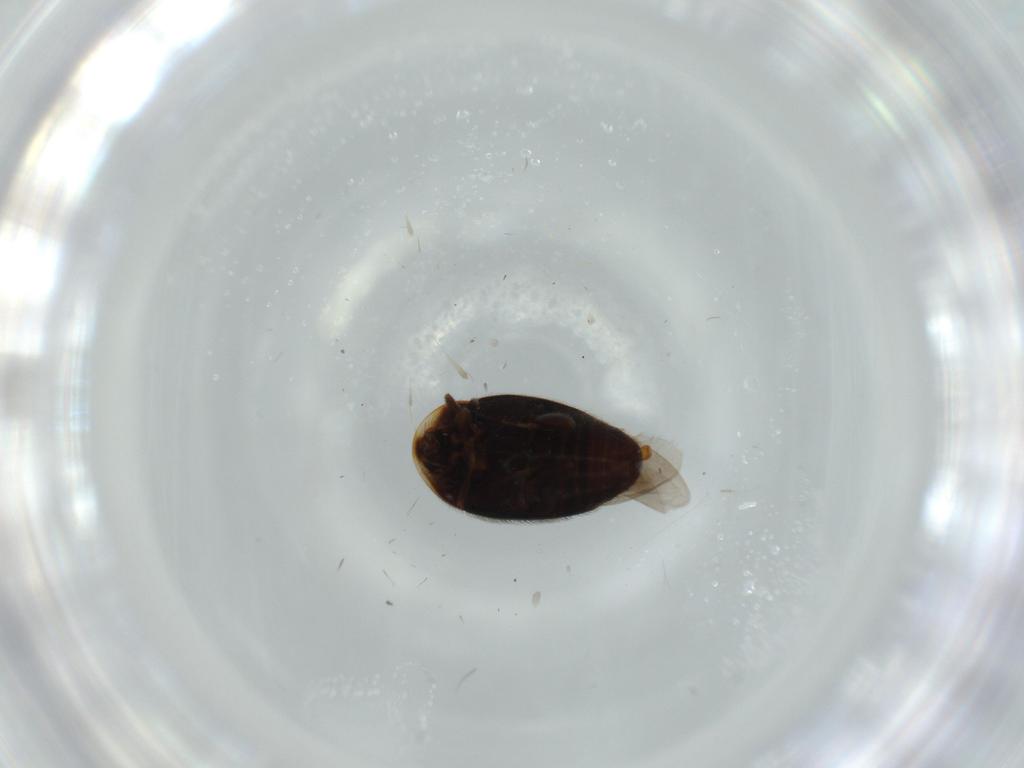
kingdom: Animalia
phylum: Arthropoda
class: Insecta
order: Coleoptera
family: Corylophidae
